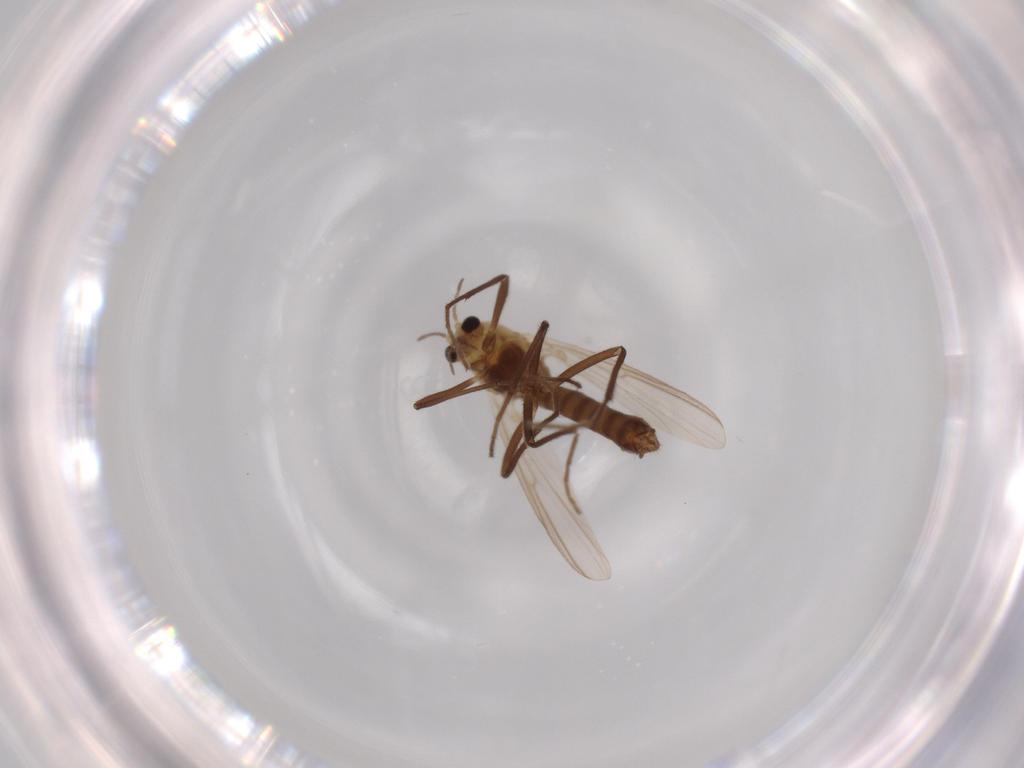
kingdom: Animalia
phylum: Arthropoda
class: Insecta
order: Diptera
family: Chironomidae
